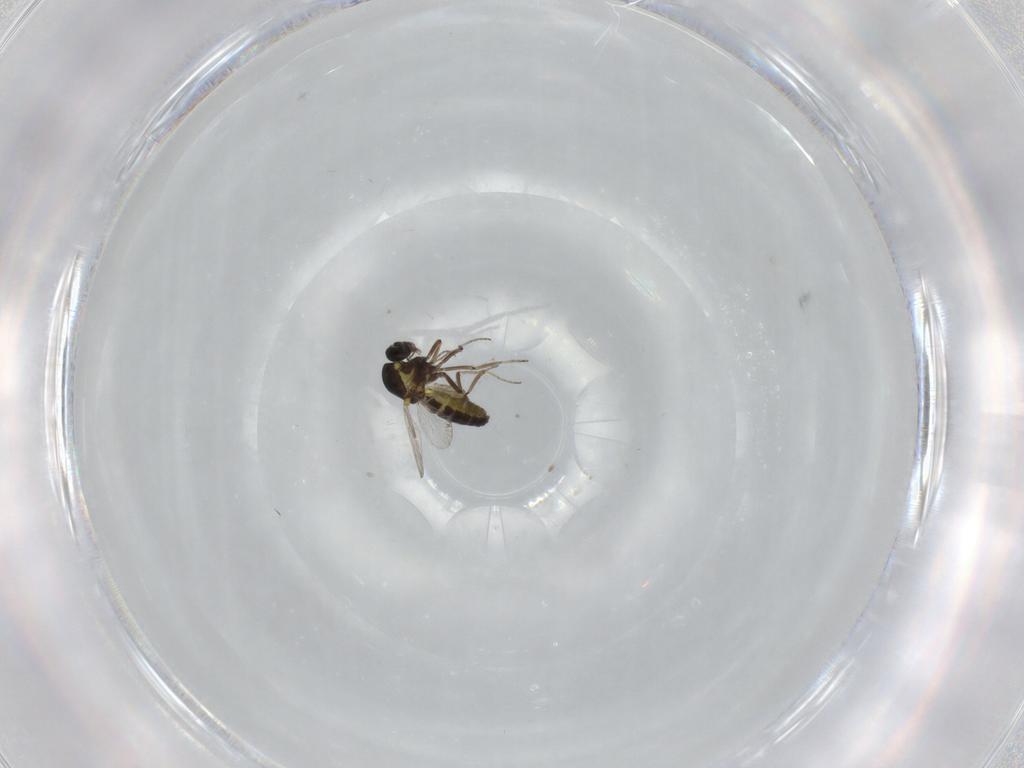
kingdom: Animalia
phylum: Arthropoda
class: Insecta
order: Diptera
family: Ceratopogonidae
